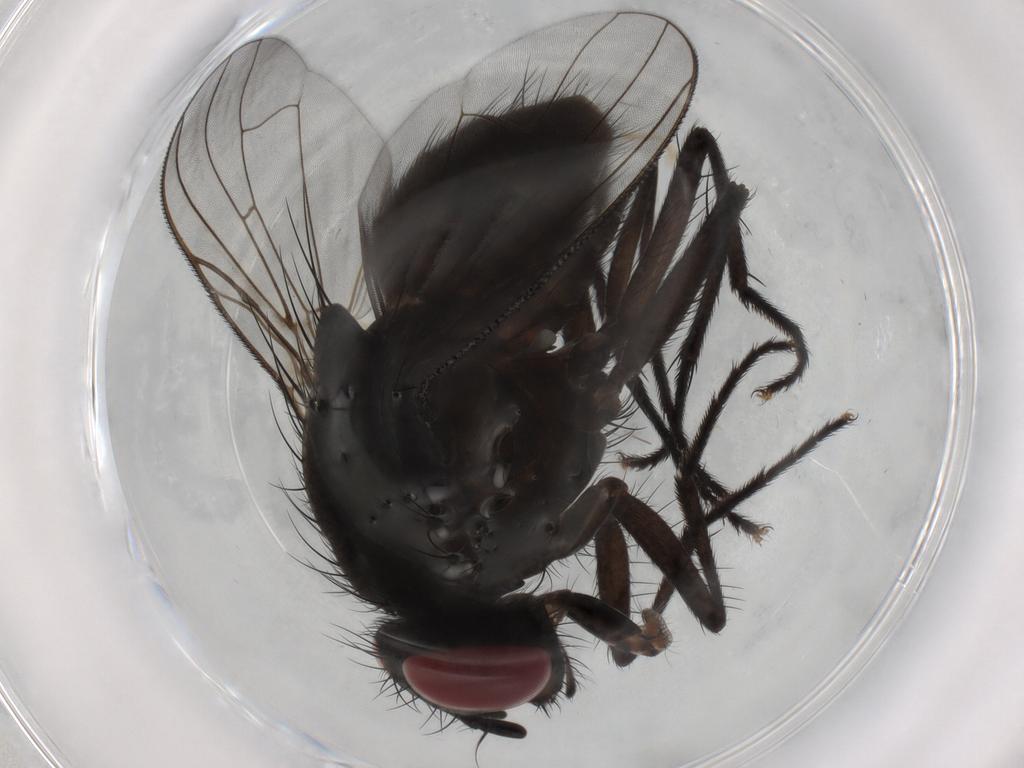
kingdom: Animalia
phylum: Arthropoda
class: Insecta
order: Diptera
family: Muscidae
